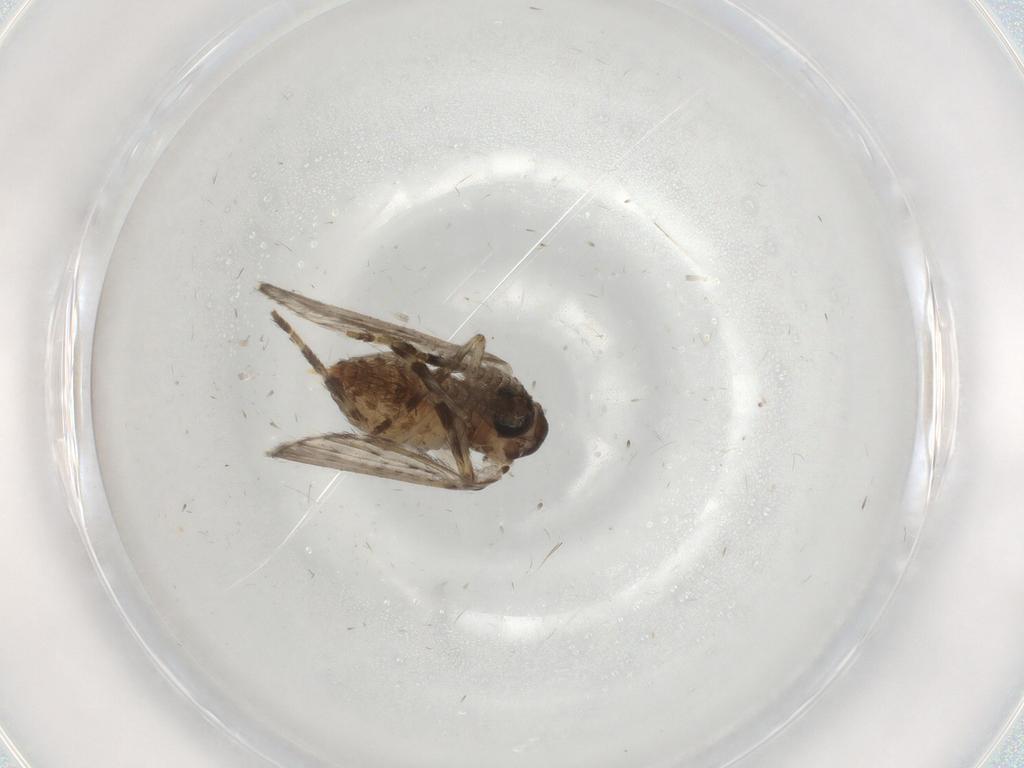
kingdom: Animalia
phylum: Arthropoda
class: Insecta
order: Diptera
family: Psychodidae
